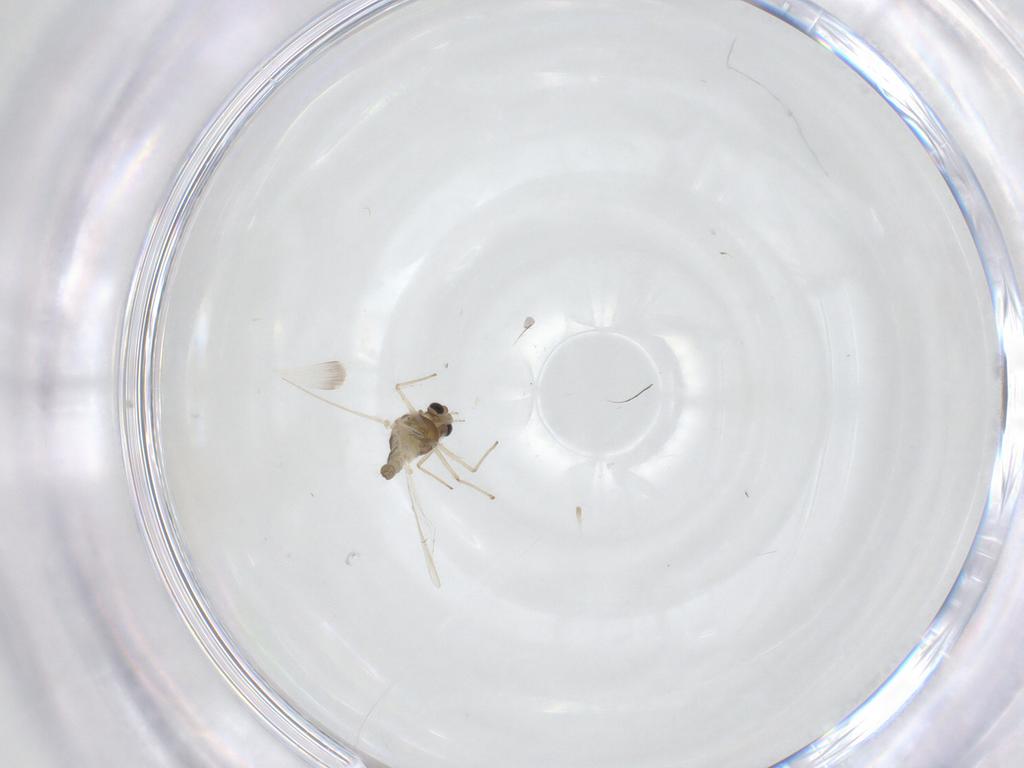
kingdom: Animalia
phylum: Arthropoda
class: Insecta
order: Diptera
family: Chironomidae
